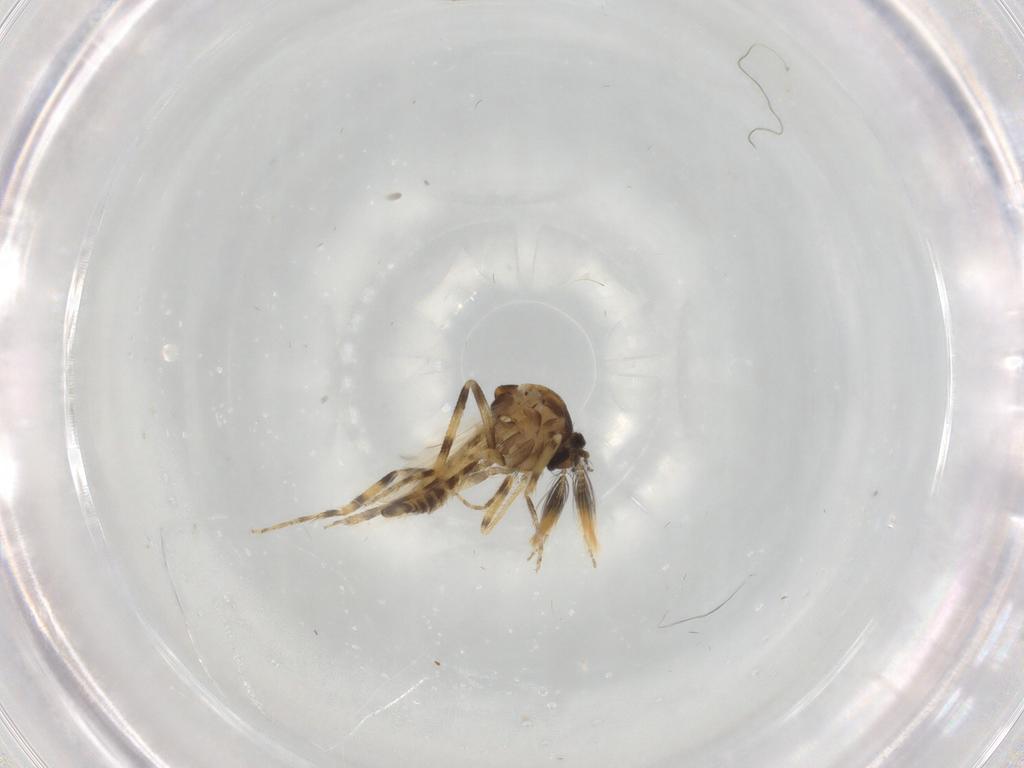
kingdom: Animalia
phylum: Arthropoda
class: Insecta
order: Diptera
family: Ceratopogonidae
